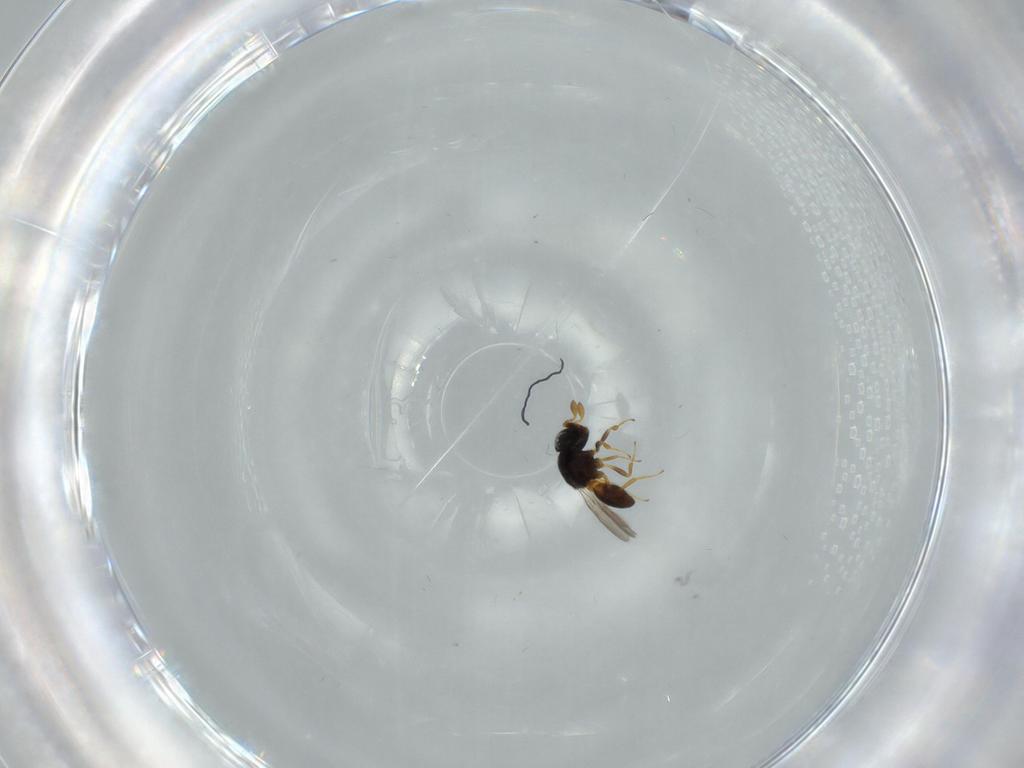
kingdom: Animalia
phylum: Arthropoda
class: Insecta
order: Hymenoptera
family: Scelionidae
